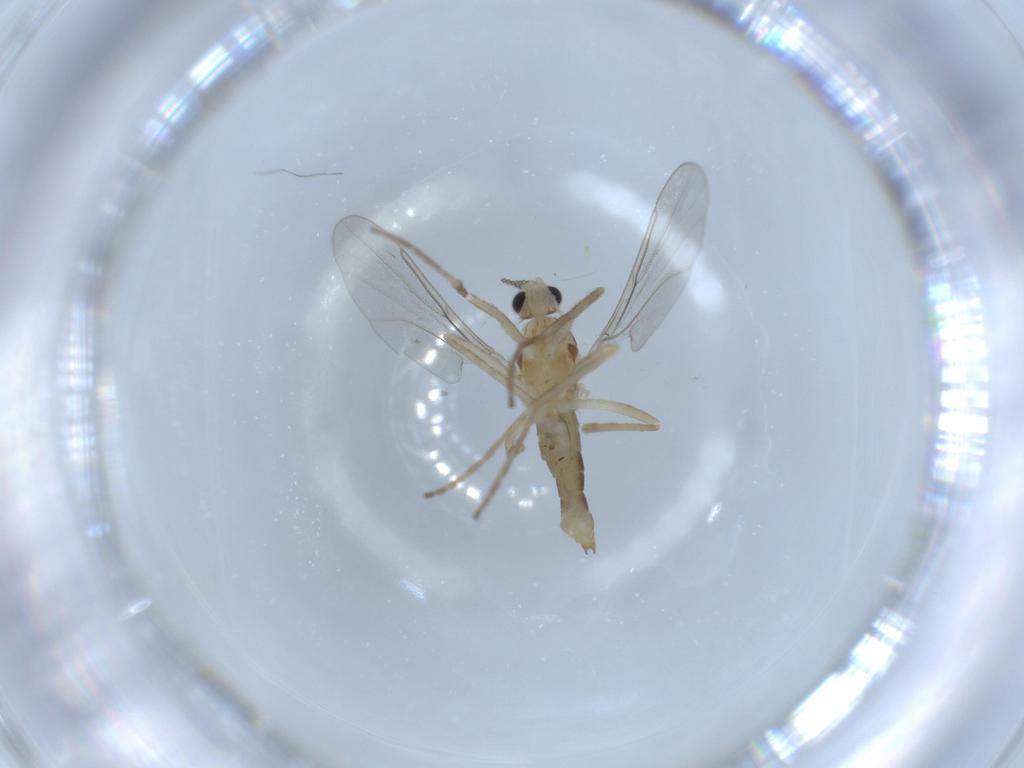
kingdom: Animalia
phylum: Arthropoda
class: Insecta
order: Diptera
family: Cecidomyiidae
